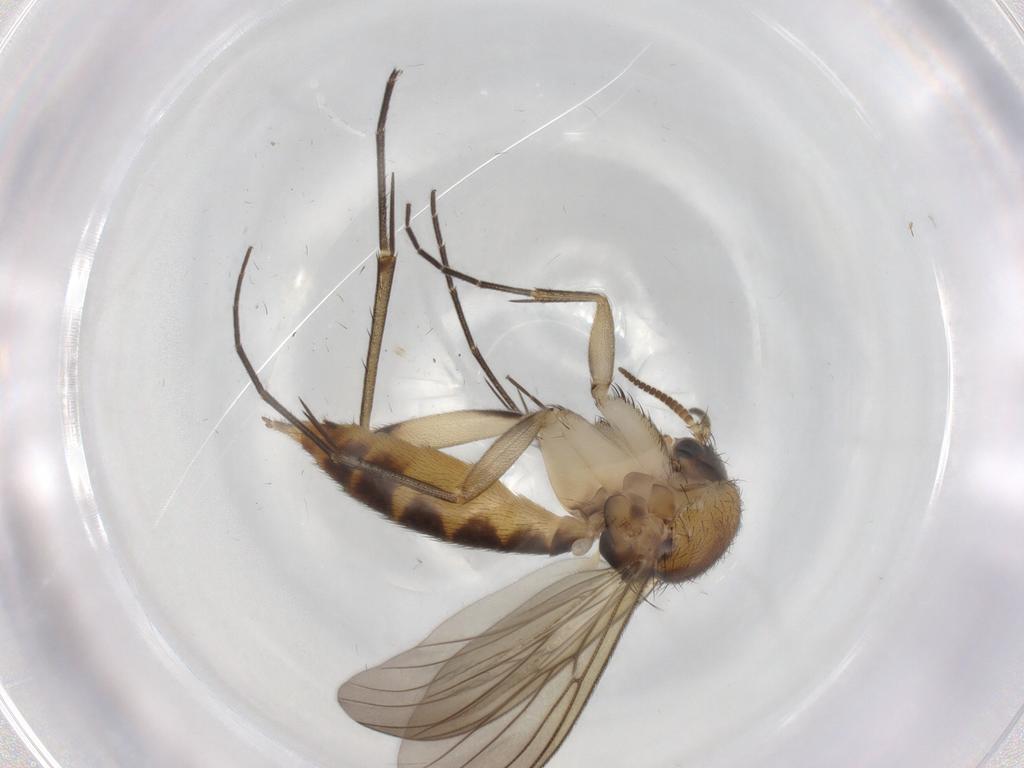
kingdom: Animalia
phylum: Arthropoda
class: Insecta
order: Diptera
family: Mycetophilidae
